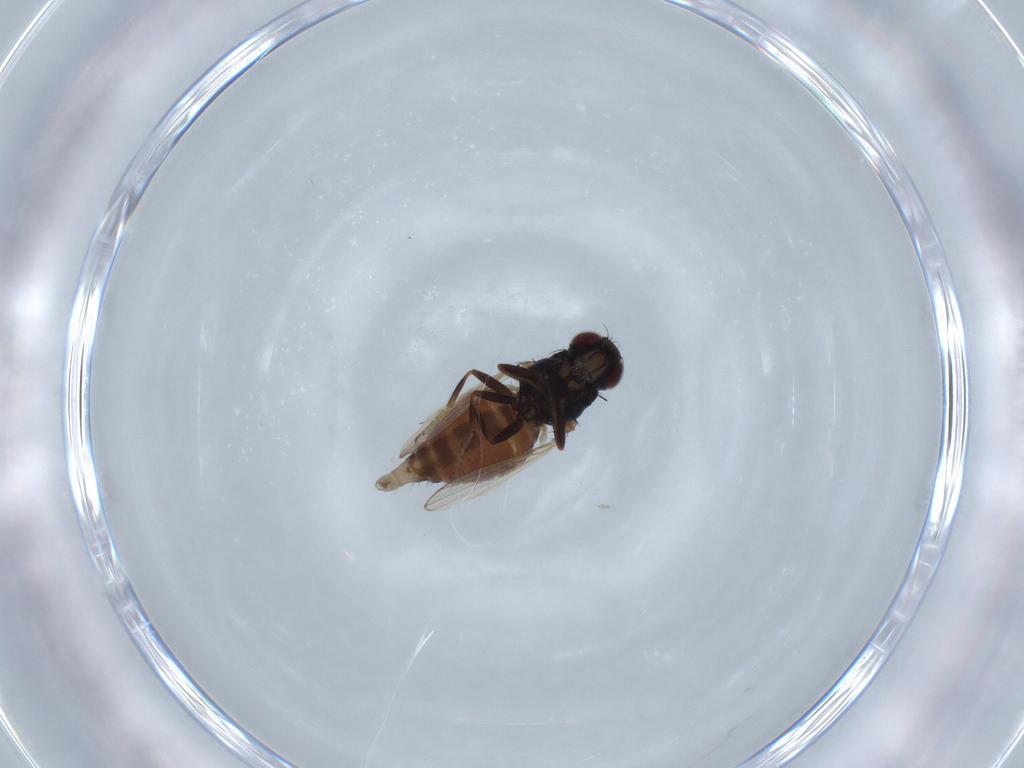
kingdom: Animalia
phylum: Arthropoda
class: Insecta
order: Diptera
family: Carnidae
